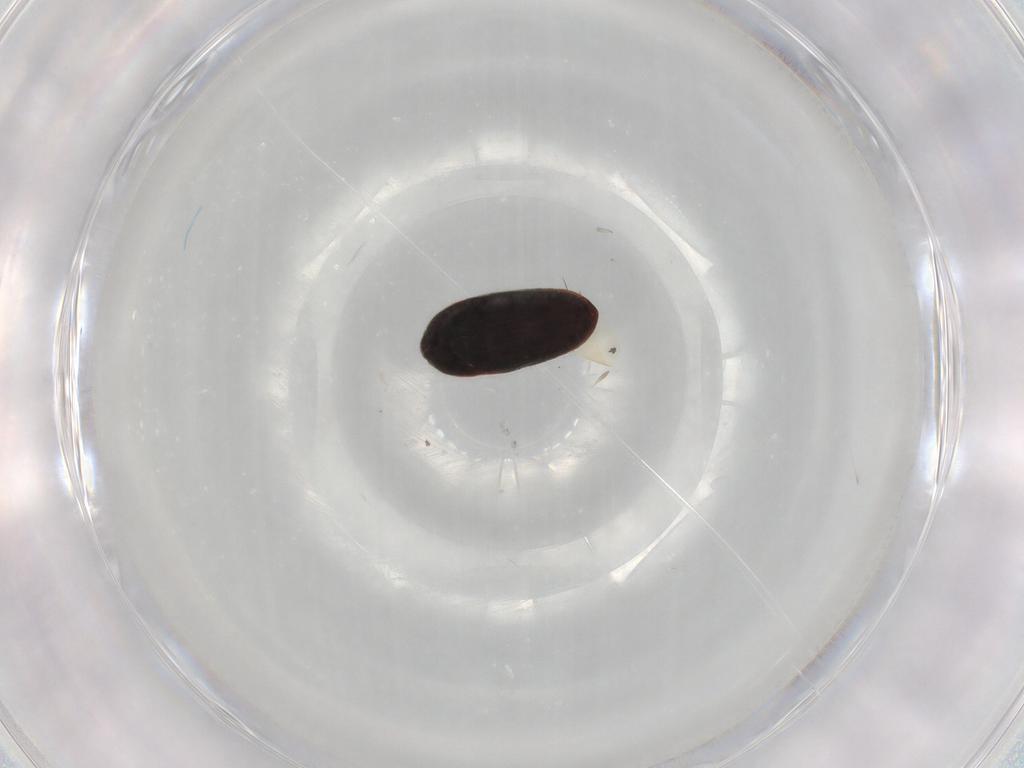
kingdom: Animalia
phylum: Arthropoda
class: Insecta
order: Coleoptera
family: Throscidae
